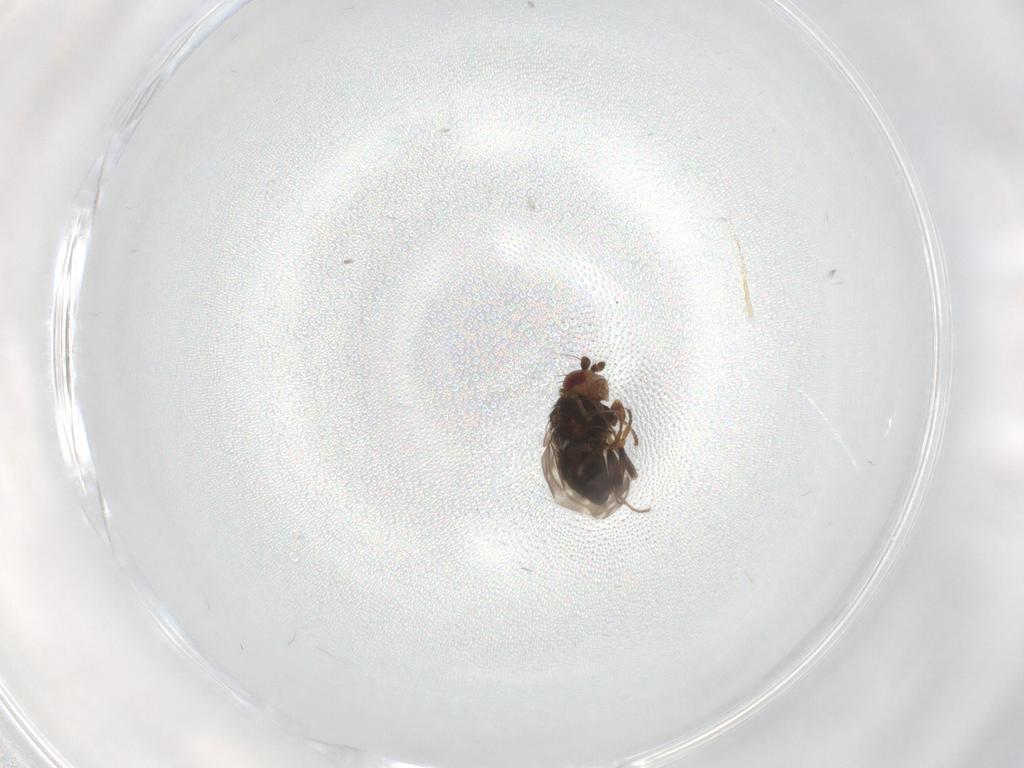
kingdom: Animalia
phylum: Arthropoda
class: Insecta
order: Diptera
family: Sphaeroceridae
